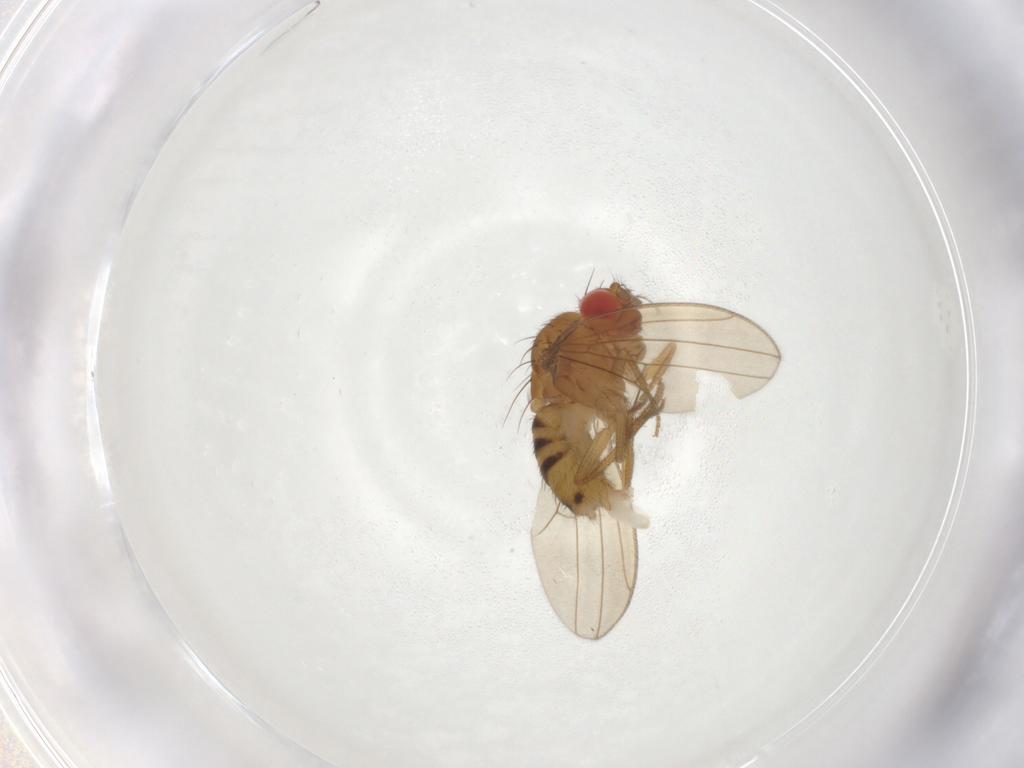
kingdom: Animalia
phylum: Arthropoda
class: Insecta
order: Diptera
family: Drosophilidae
